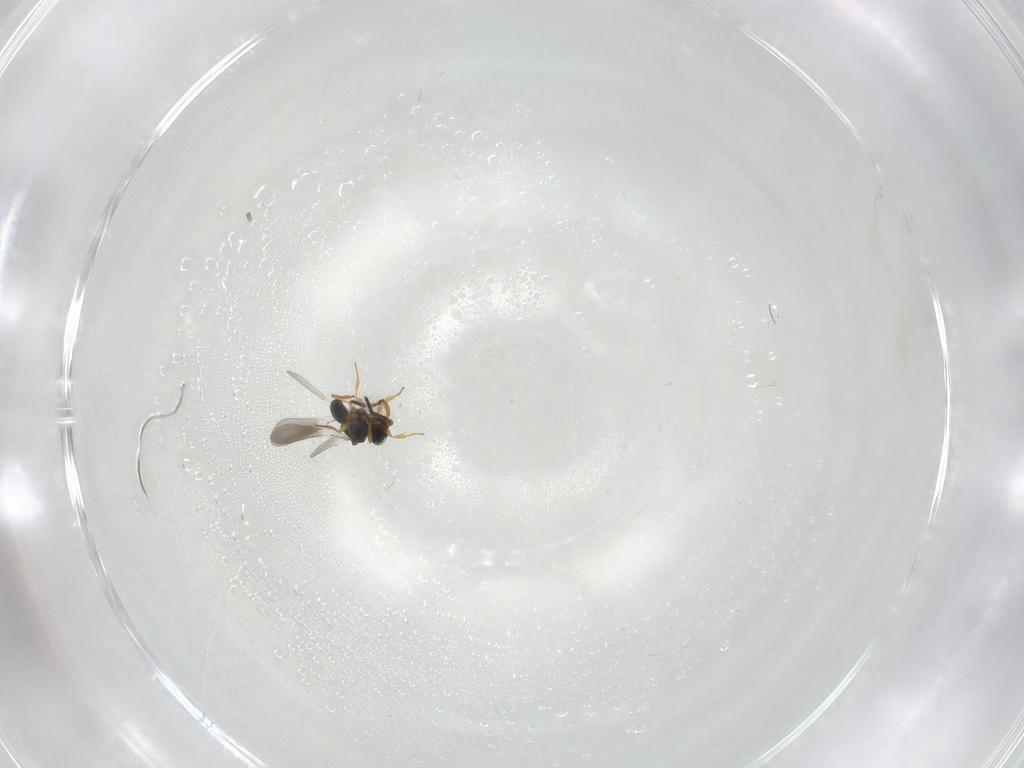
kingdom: Animalia
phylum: Arthropoda
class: Insecta
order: Hymenoptera
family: Platygastridae
